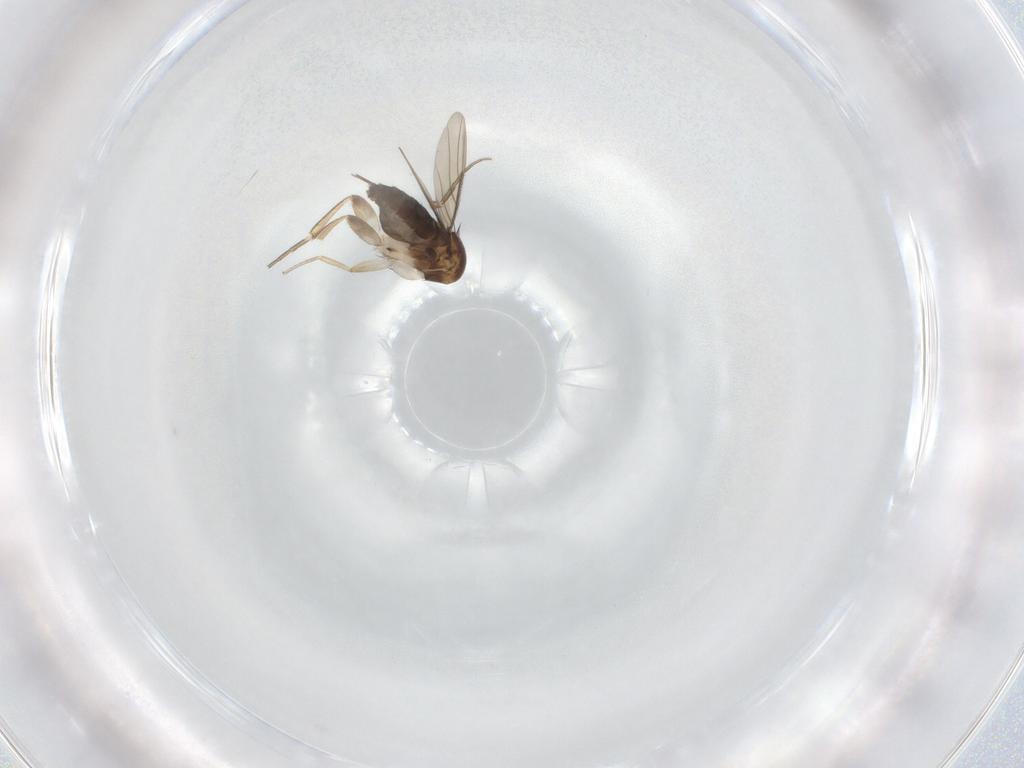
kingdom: Animalia
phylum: Arthropoda
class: Insecta
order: Diptera
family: Phoridae
